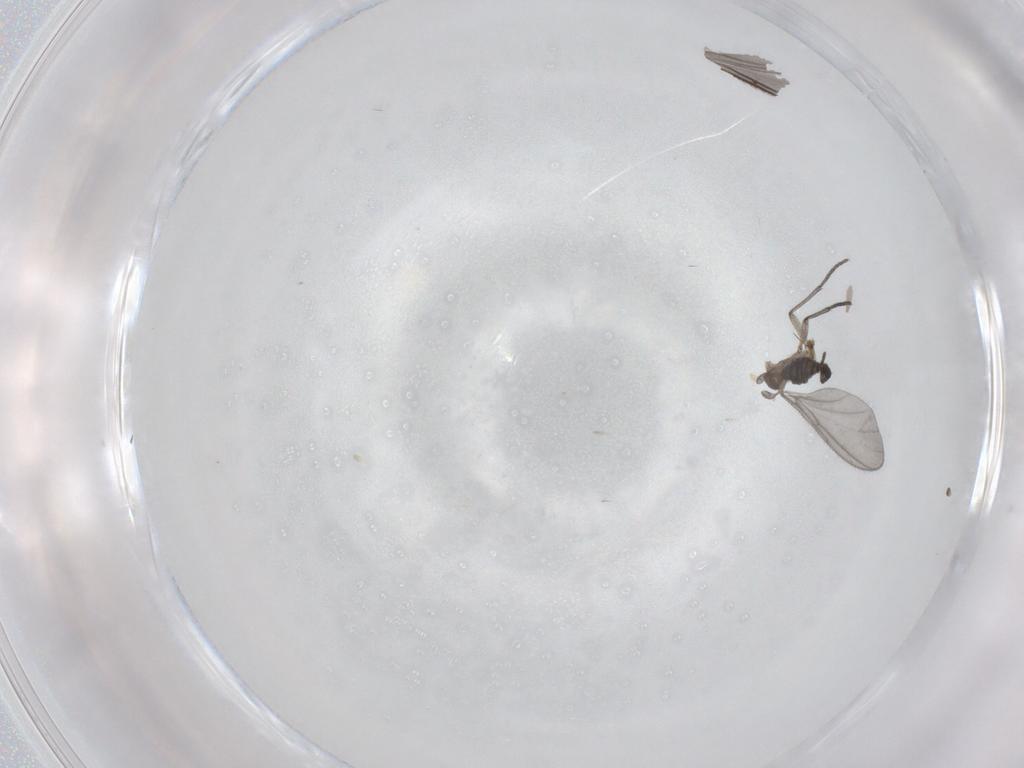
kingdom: Animalia
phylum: Arthropoda
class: Insecta
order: Diptera
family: Sciaridae
